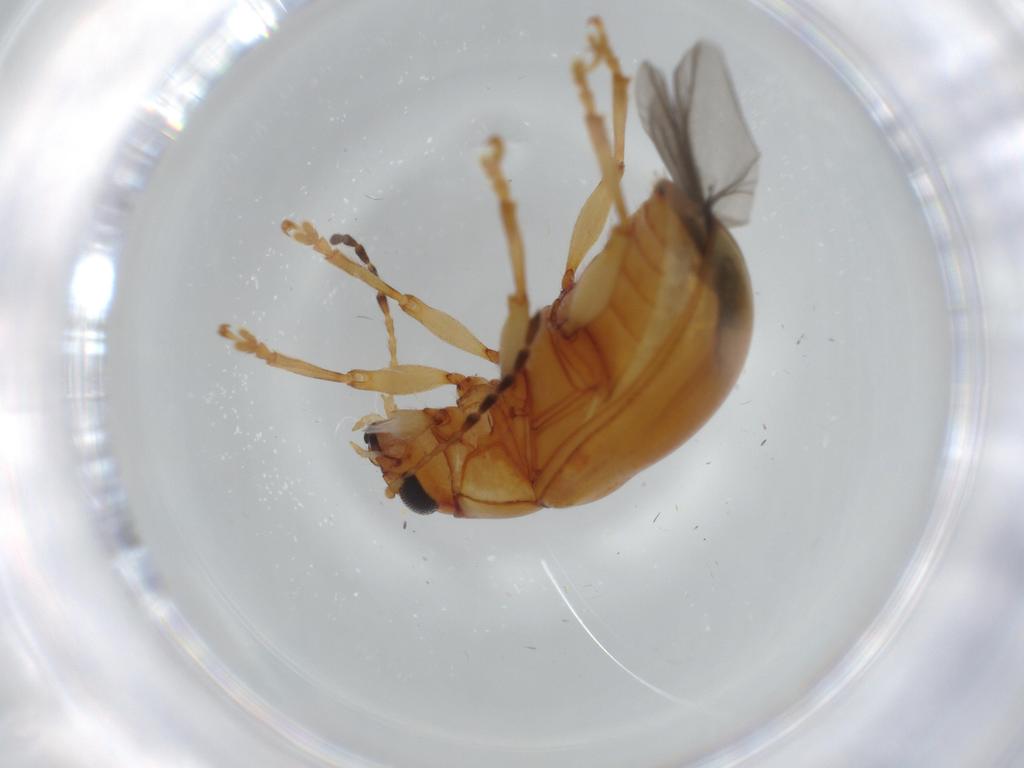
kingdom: Animalia
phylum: Arthropoda
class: Insecta
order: Coleoptera
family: Chrysomelidae
